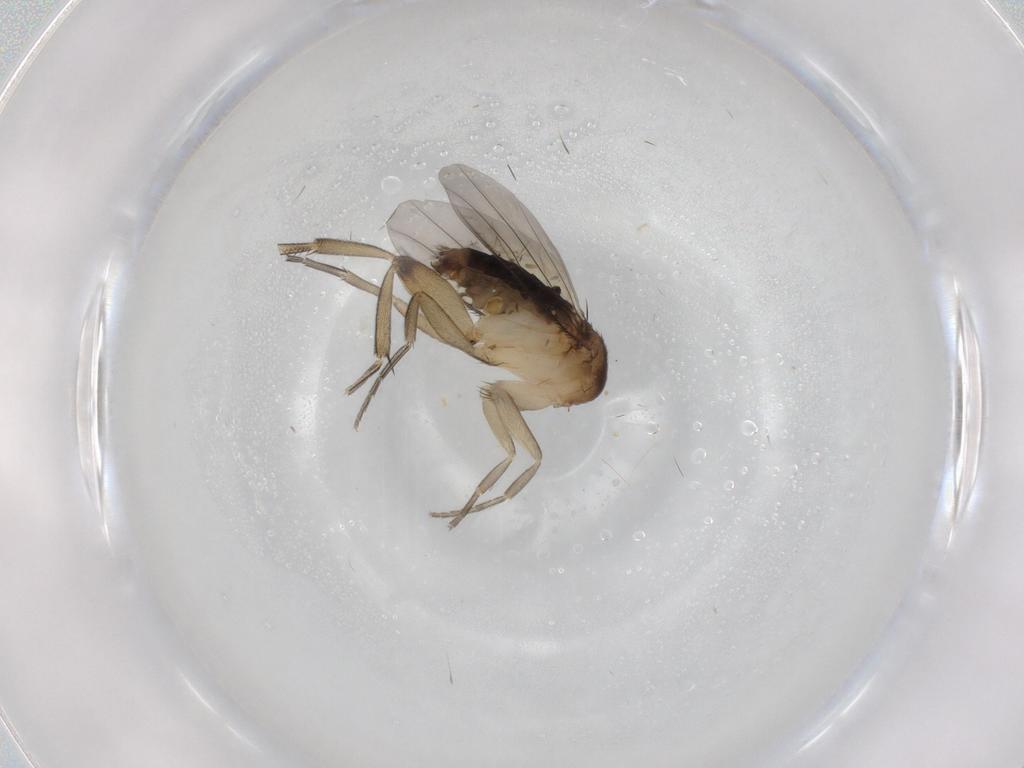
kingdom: Animalia
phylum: Arthropoda
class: Insecta
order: Diptera
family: Phoridae
